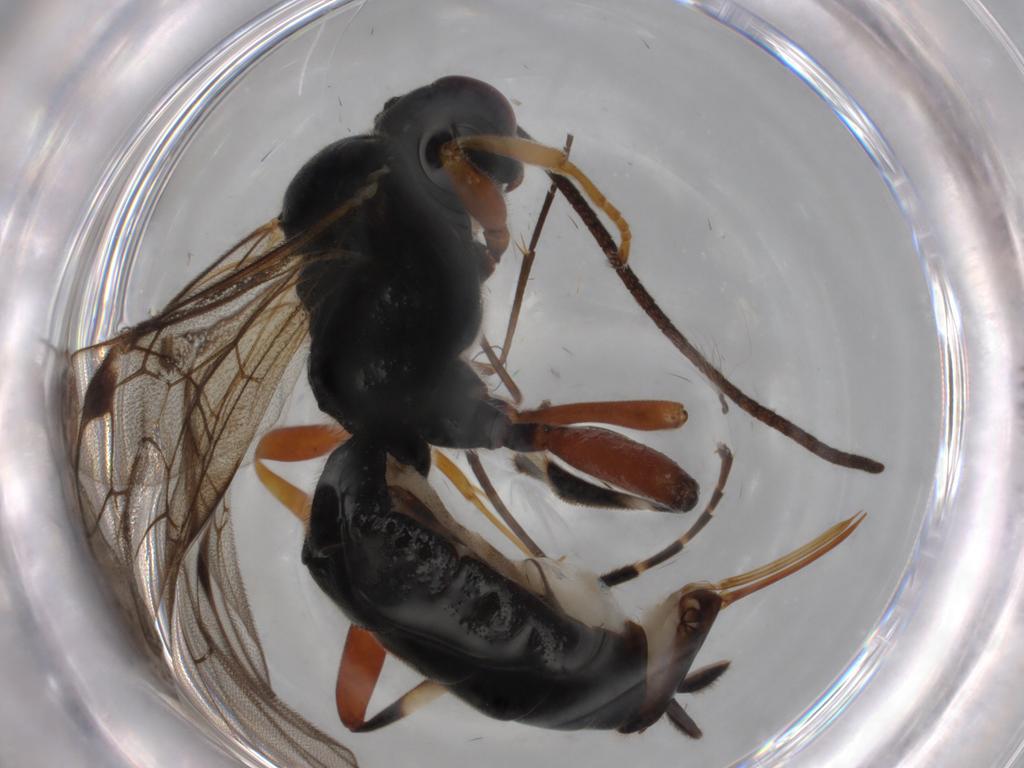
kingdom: Animalia
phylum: Arthropoda
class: Insecta
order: Hymenoptera
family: Ichneumonidae
